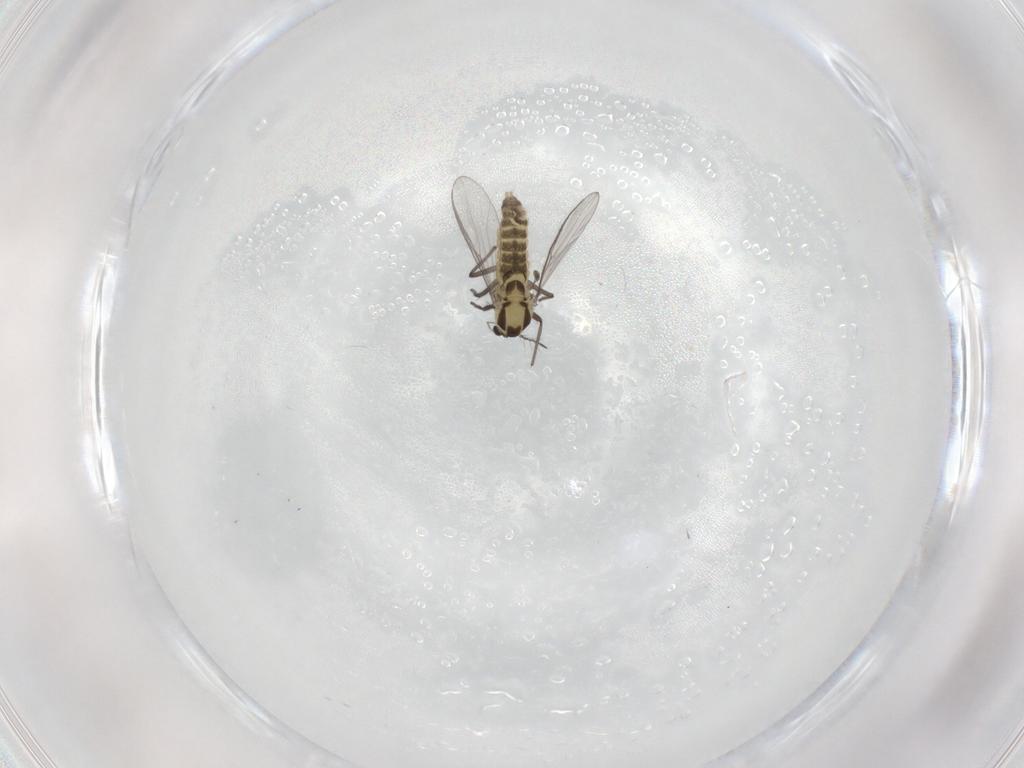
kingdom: Animalia
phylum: Arthropoda
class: Insecta
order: Diptera
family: Chironomidae
